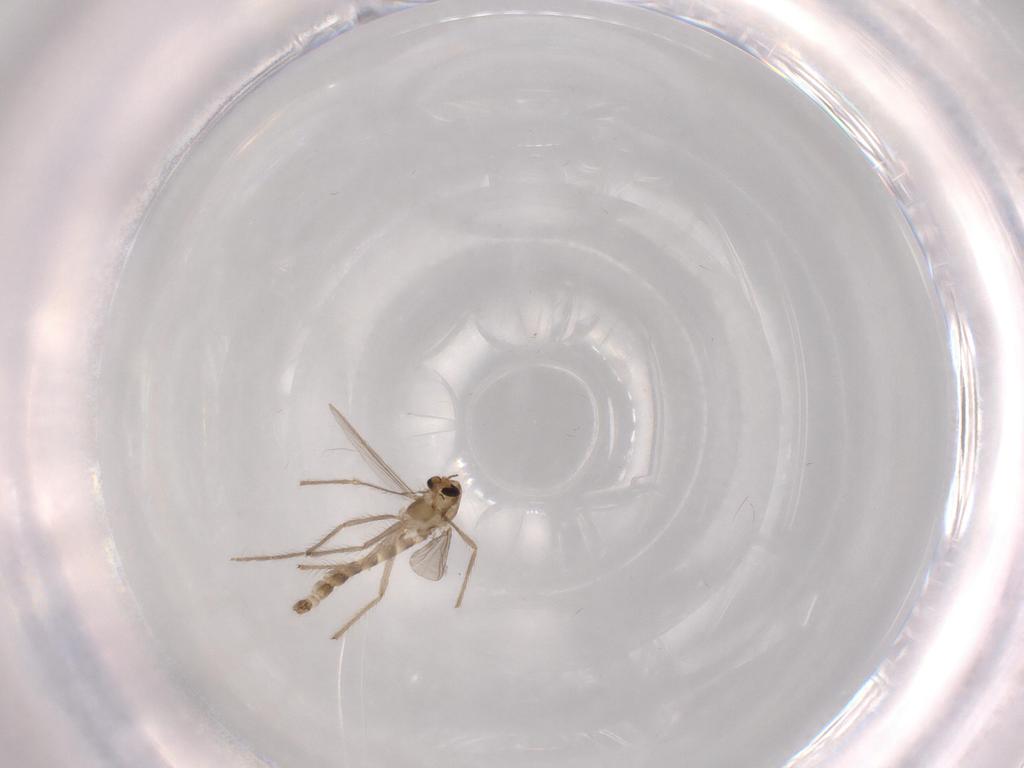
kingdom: Animalia
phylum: Arthropoda
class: Insecta
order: Diptera
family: Chironomidae
